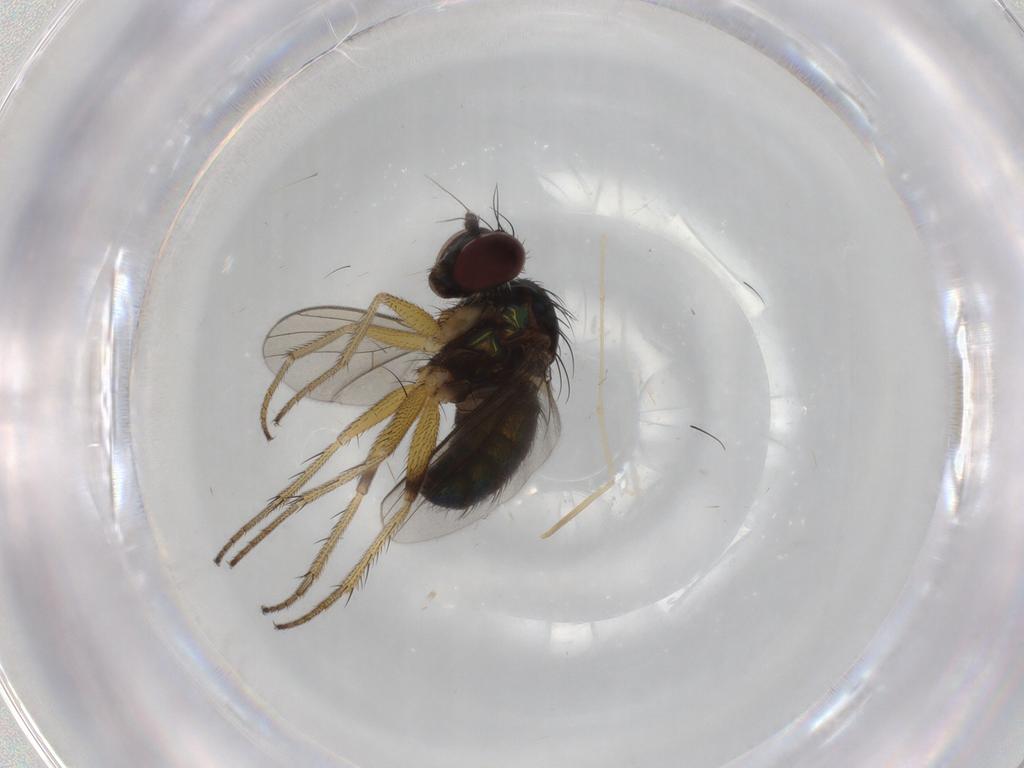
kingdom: Animalia
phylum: Arthropoda
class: Insecta
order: Diptera
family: Dolichopodidae
